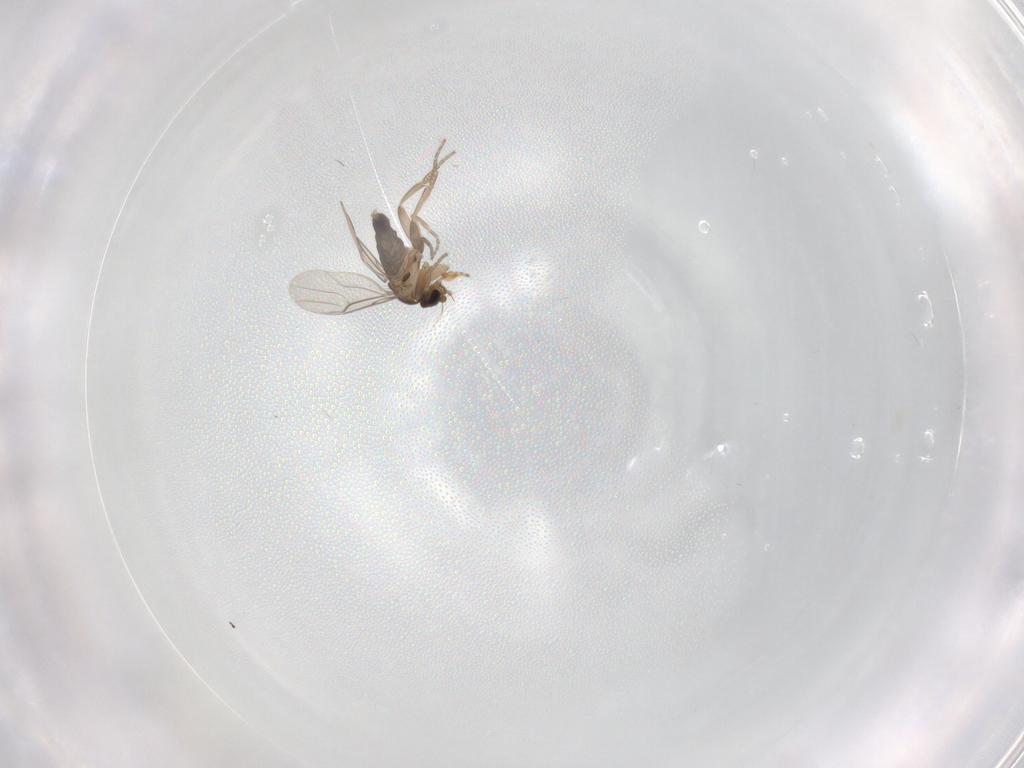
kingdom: Animalia
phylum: Arthropoda
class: Insecta
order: Diptera
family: Phoridae
